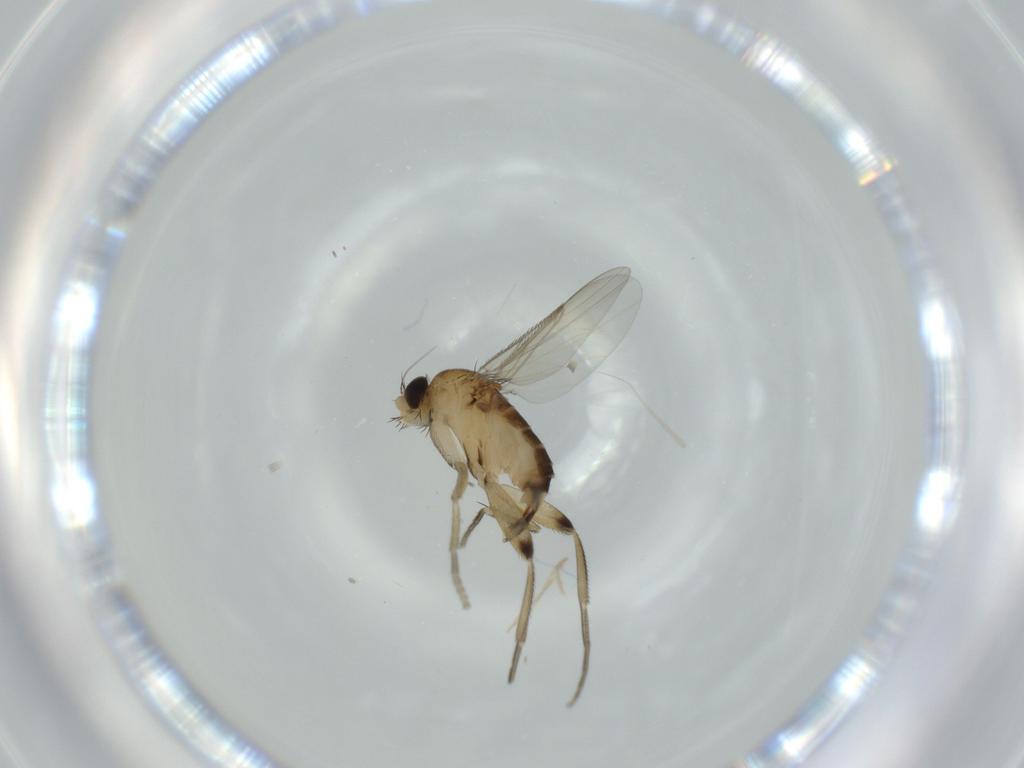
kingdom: Animalia
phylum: Arthropoda
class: Insecta
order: Diptera
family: Phoridae
